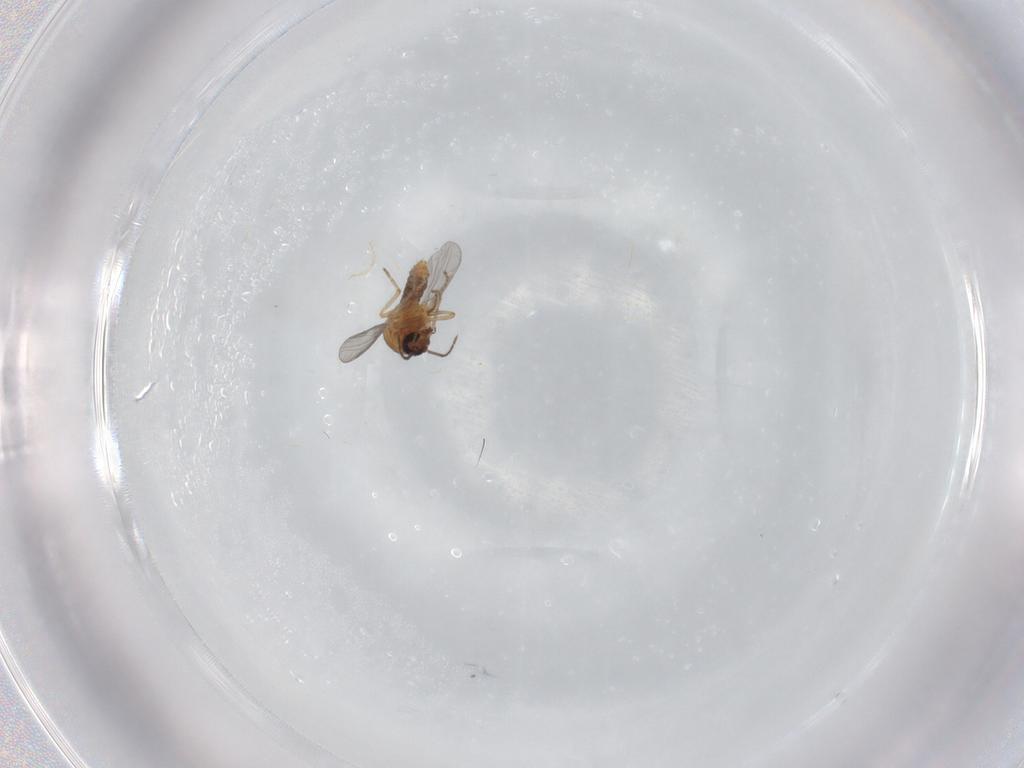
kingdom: Animalia
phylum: Arthropoda
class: Insecta
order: Diptera
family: Ceratopogonidae
